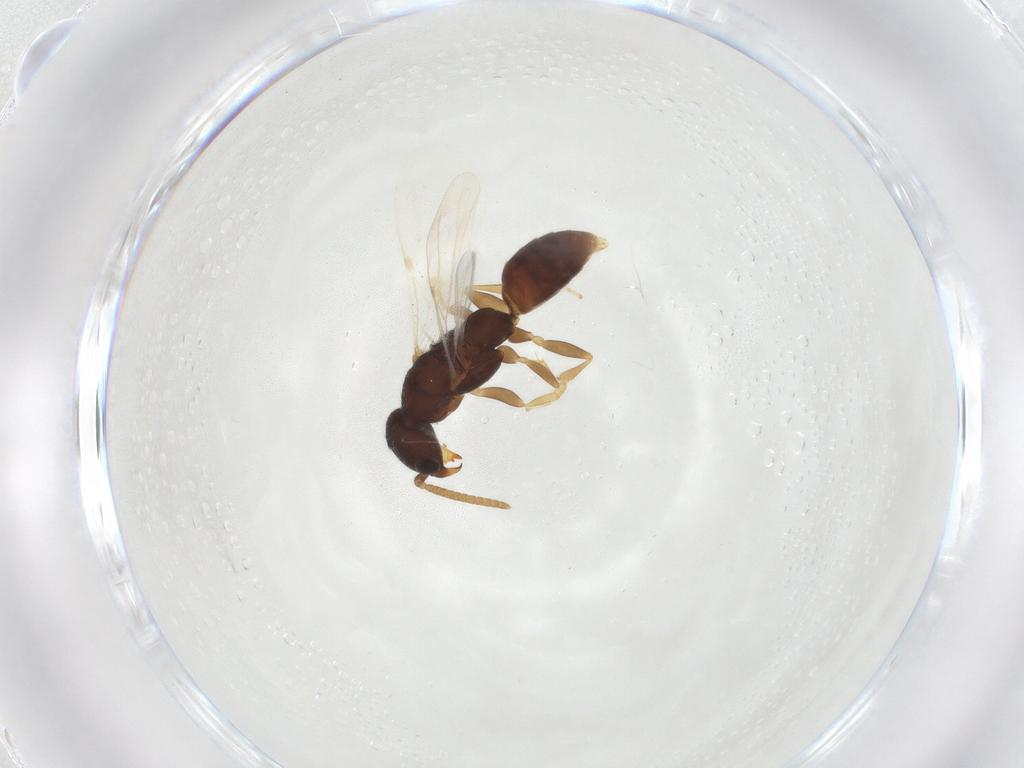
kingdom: Animalia
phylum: Arthropoda
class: Insecta
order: Hymenoptera
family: Bethylidae
